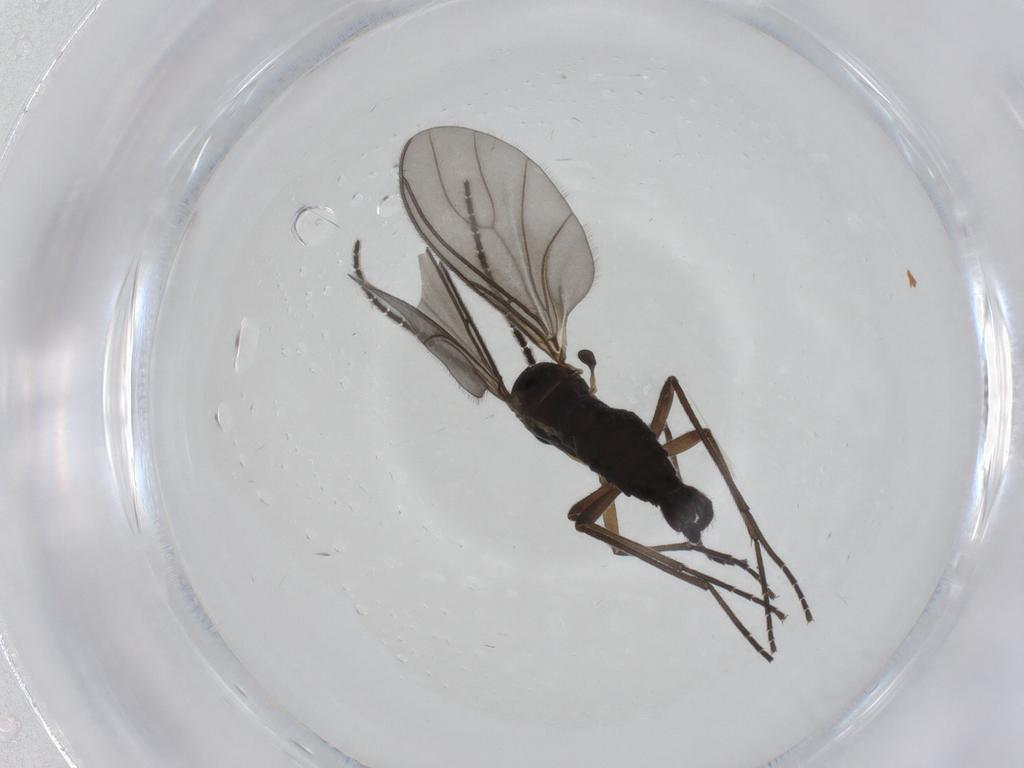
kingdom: Animalia
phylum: Arthropoda
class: Insecta
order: Diptera
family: Sciaridae
